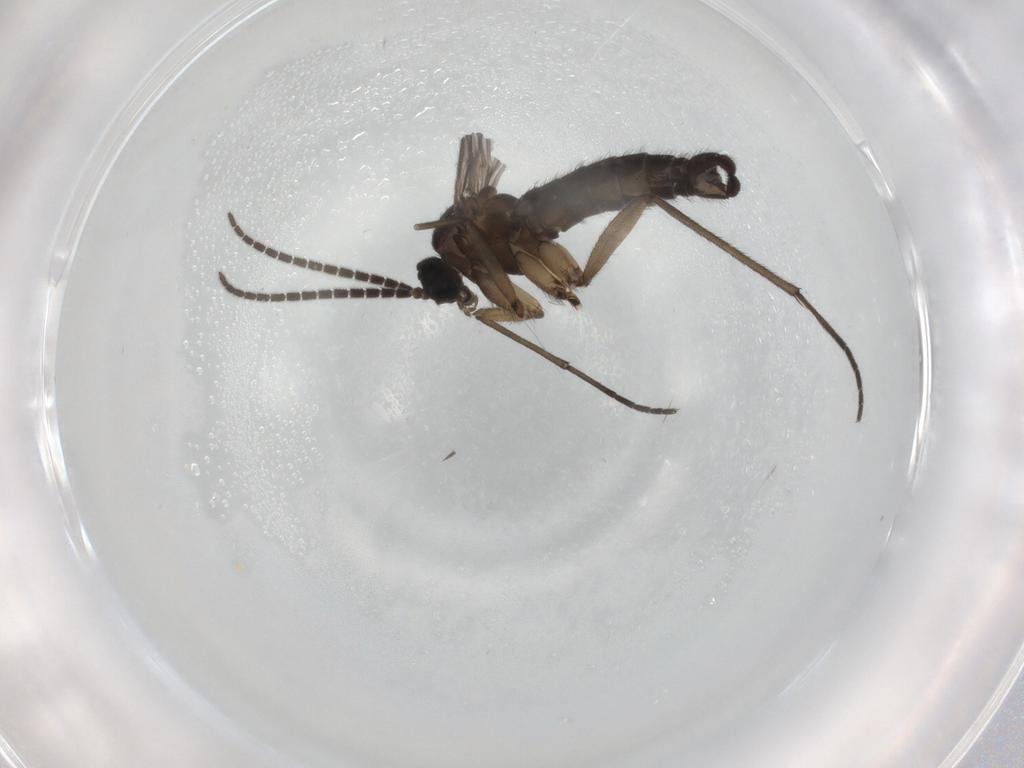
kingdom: Animalia
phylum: Arthropoda
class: Insecta
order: Diptera
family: Sciaridae
